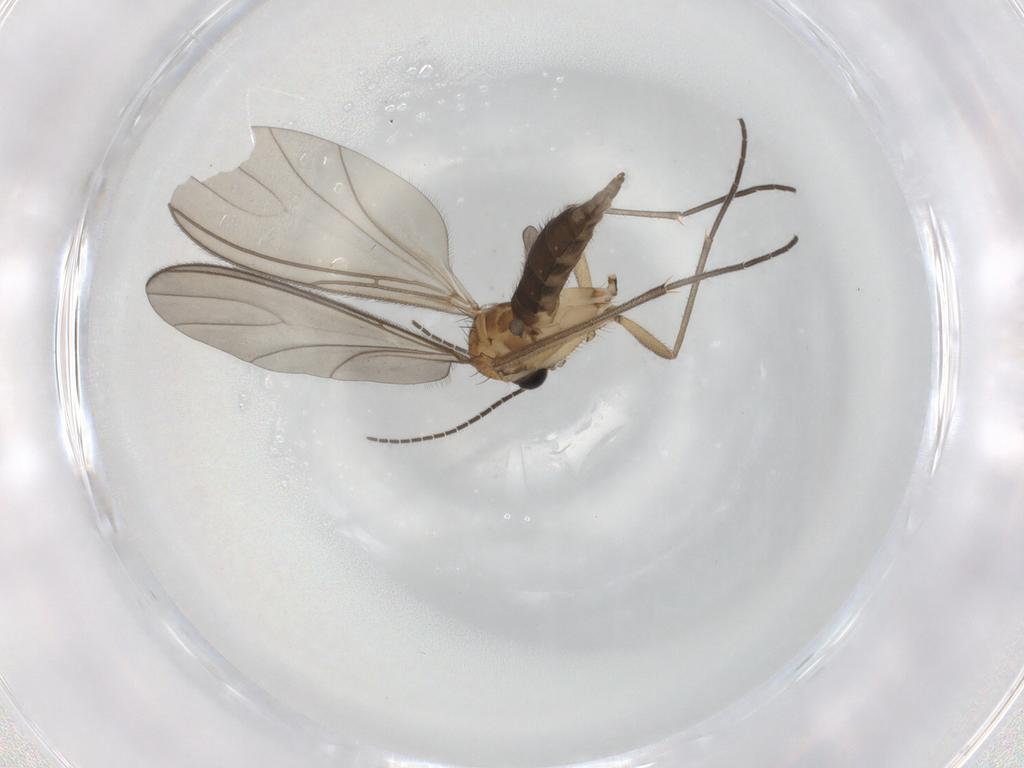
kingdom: Animalia
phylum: Arthropoda
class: Insecta
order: Diptera
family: Sciaridae
